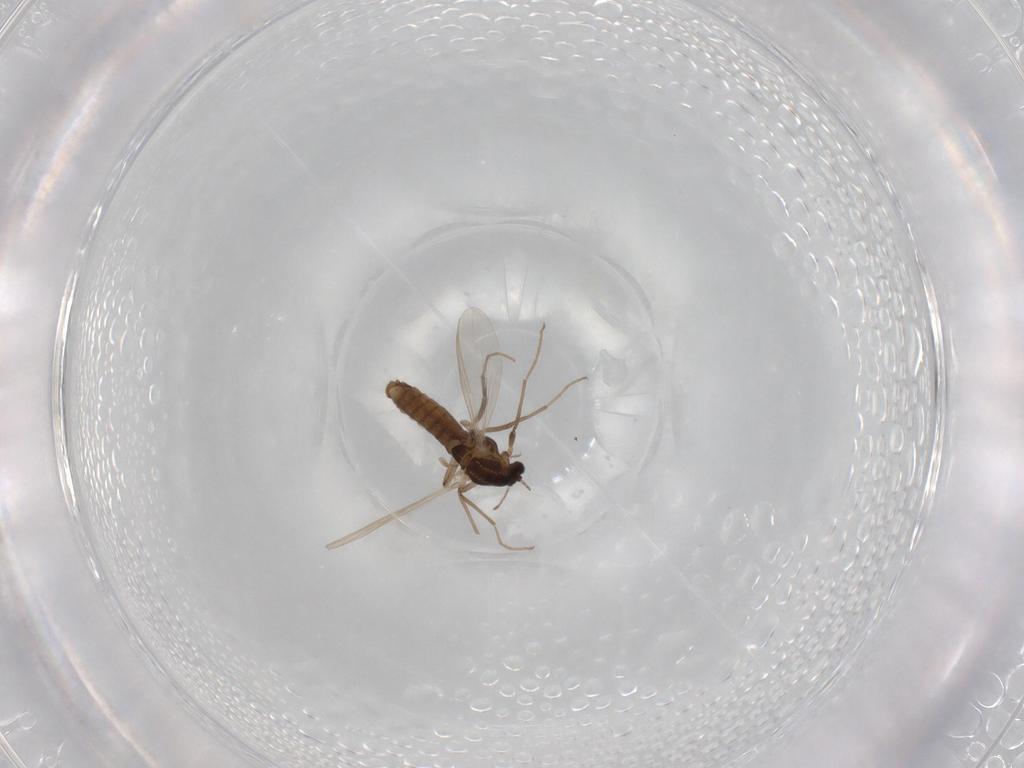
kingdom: Animalia
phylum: Arthropoda
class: Insecta
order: Diptera
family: Chironomidae
